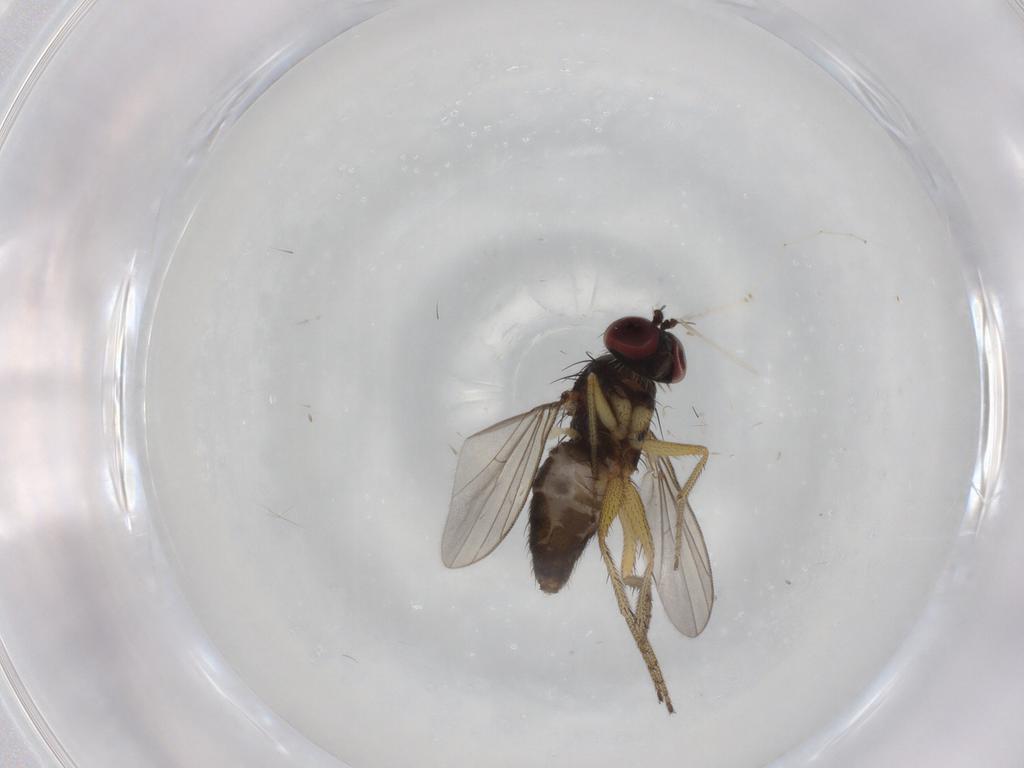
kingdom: Animalia
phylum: Arthropoda
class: Insecta
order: Diptera
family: Dolichopodidae
